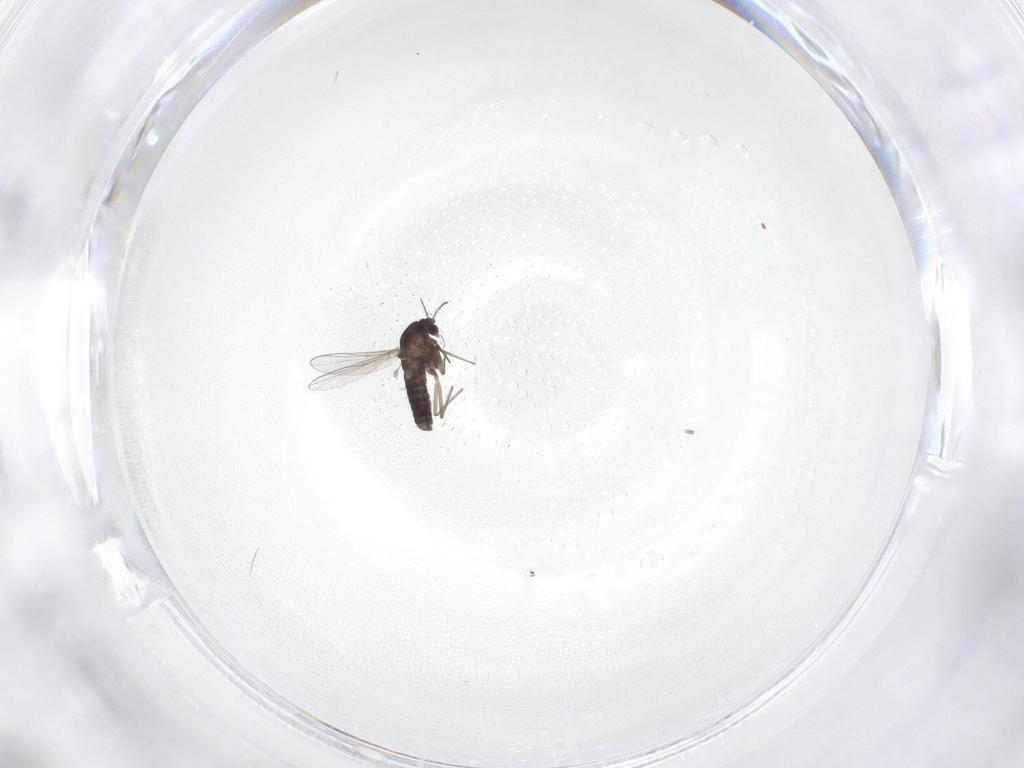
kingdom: Animalia
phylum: Arthropoda
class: Insecta
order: Diptera
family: Chironomidae
